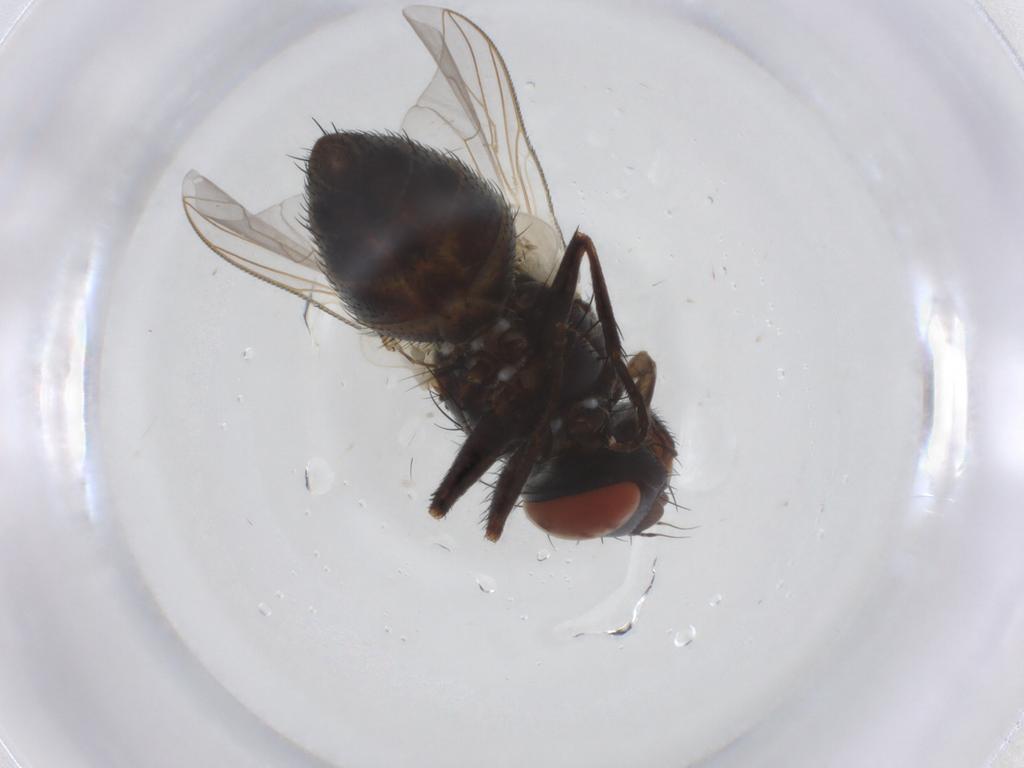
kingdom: Animalia
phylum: Arthropoda
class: Insecta
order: Diptera
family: Sarcophagidae
